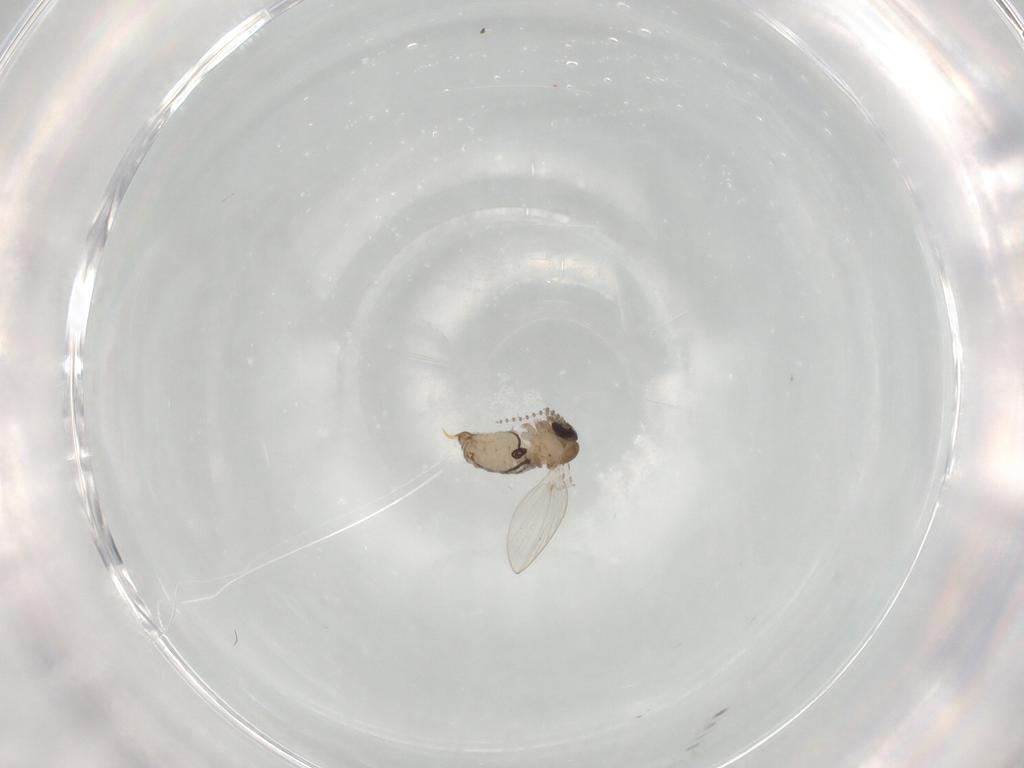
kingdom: Animalia
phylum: Arthropoda
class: Insecta
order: Diptera
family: Psychodidae
